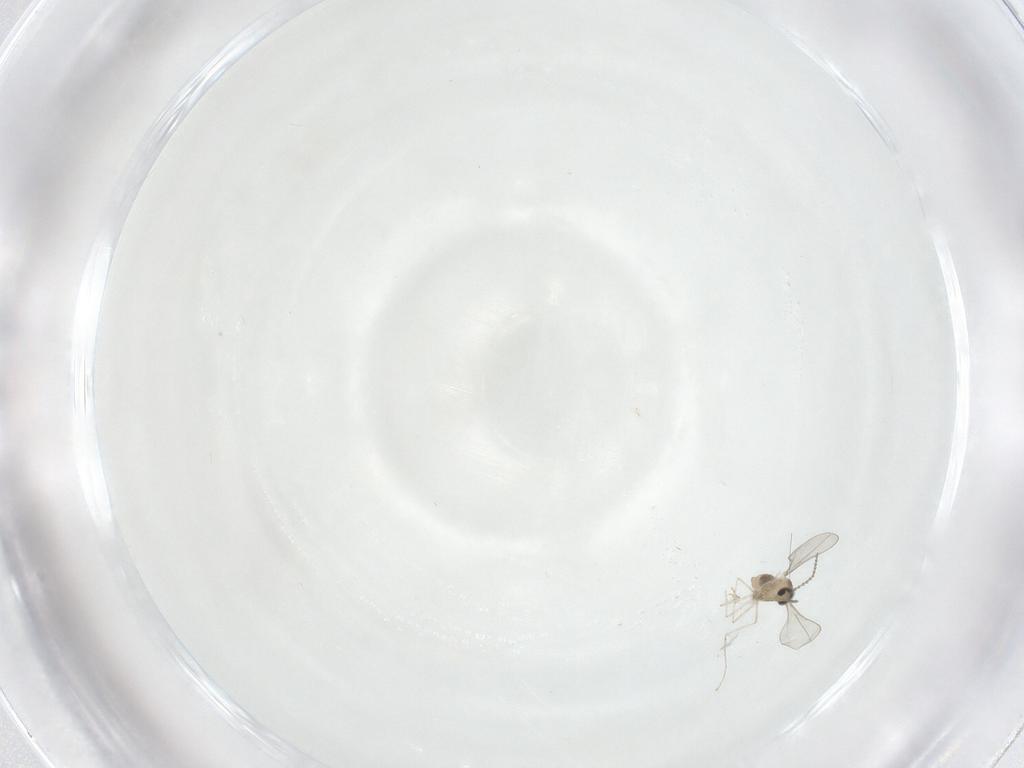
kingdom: Animalia
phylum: Arthropoda
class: Insecta
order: Diptera
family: Cecidomyiidae
